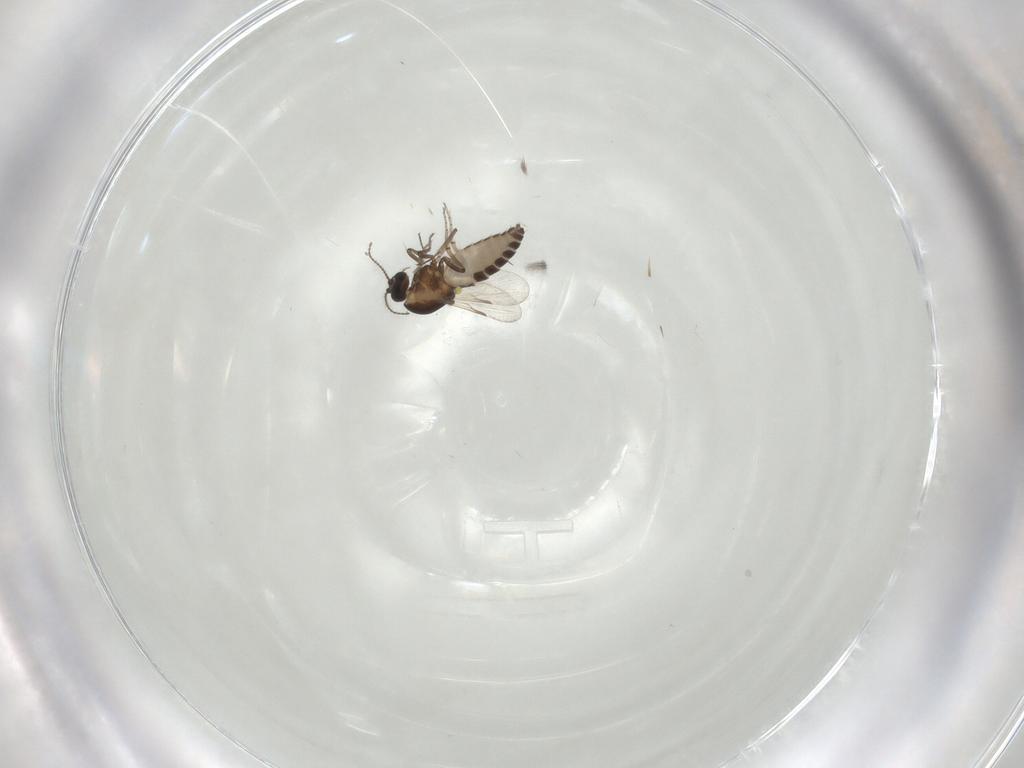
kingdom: Animalia
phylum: Arthropoda
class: Insecta
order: Diptera
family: Ceratopogonidae
